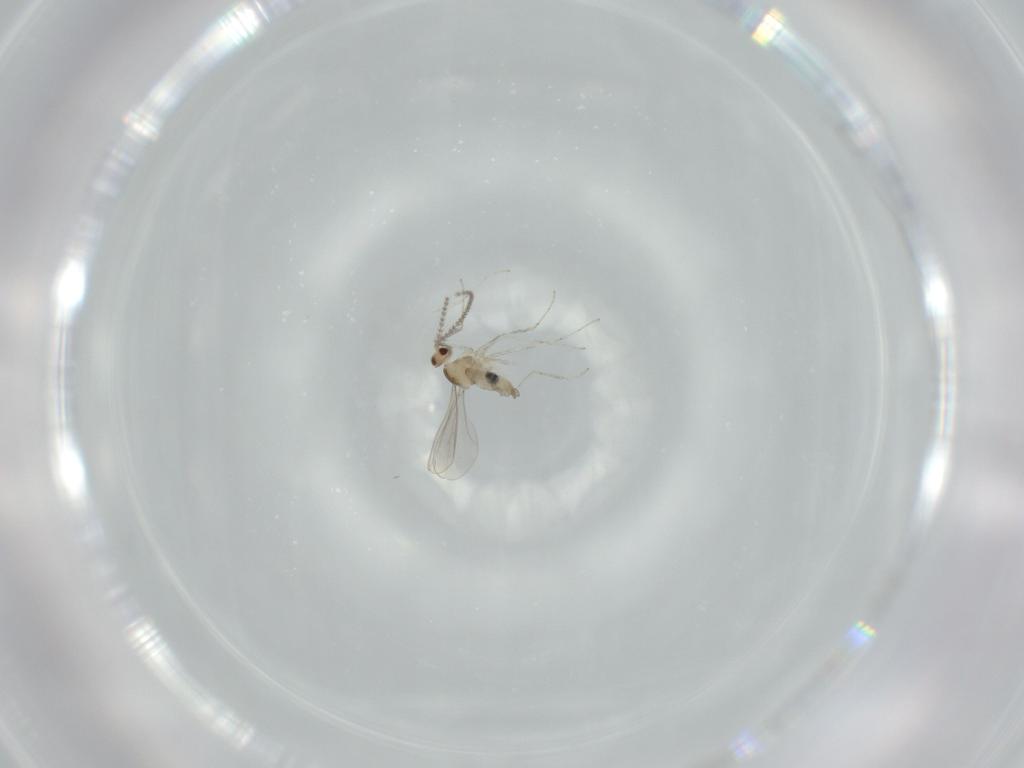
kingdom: Animalia
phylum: Arthropoda
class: Insecta
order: Diptera
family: Cecidomyiidae
